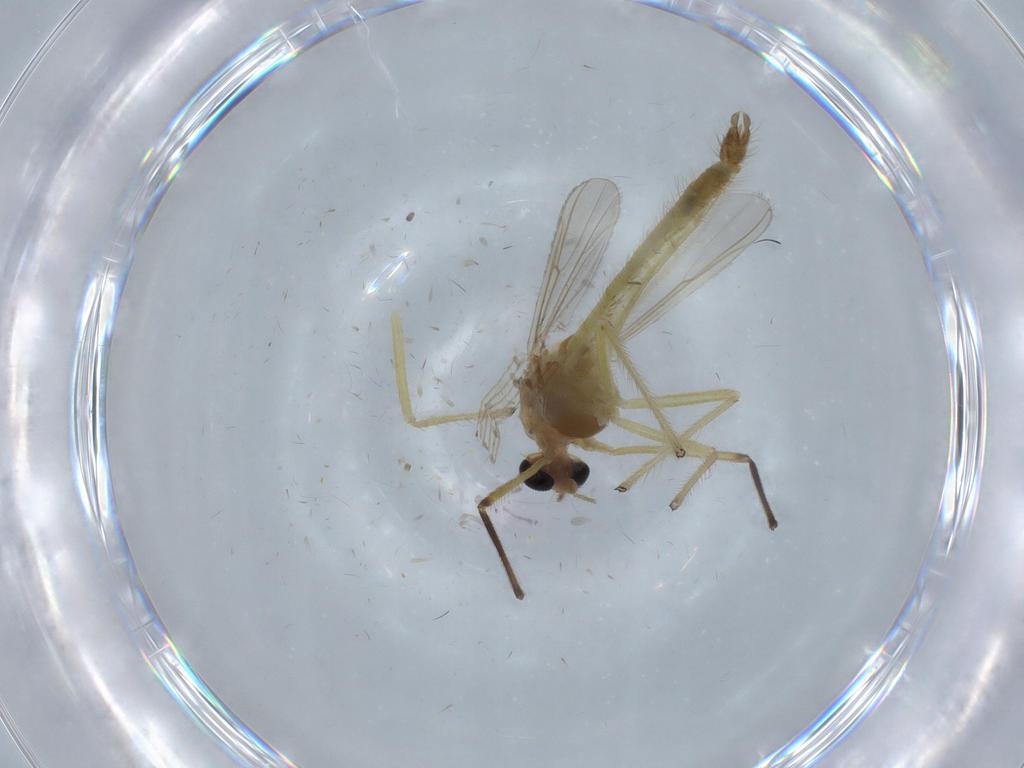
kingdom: Animalia
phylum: Arthropoda
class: Insecta
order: Diptera
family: Chironomidae
